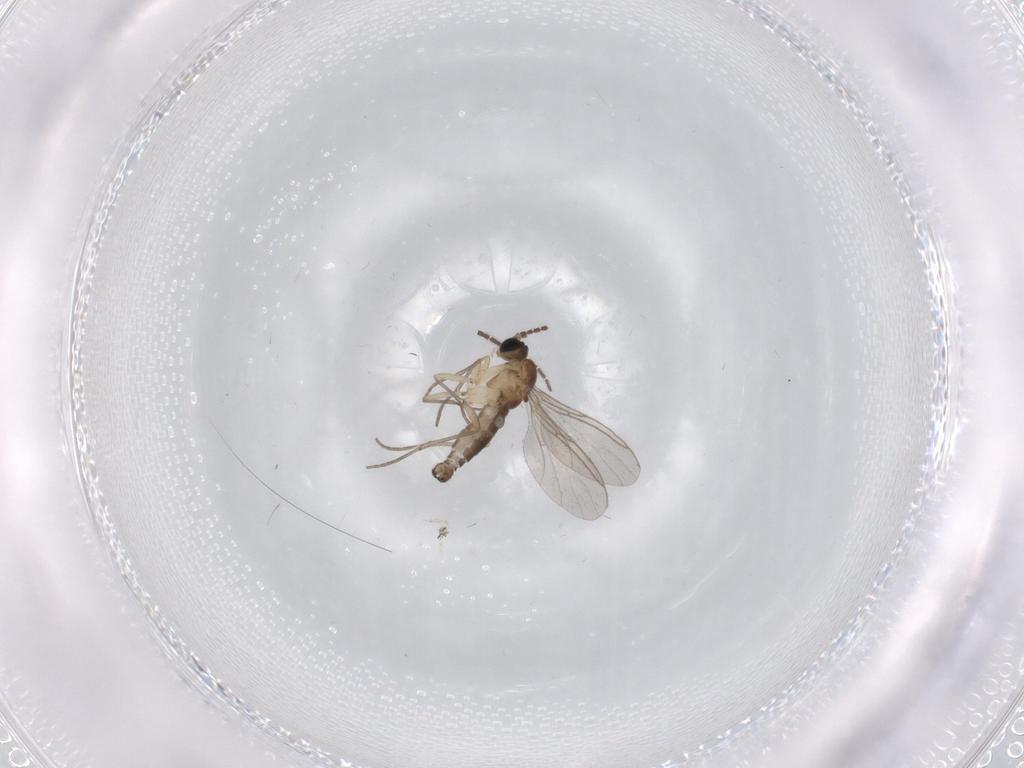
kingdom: Animalia
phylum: Arthropoda
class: Insecta
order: Diptera
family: Sciaridae
